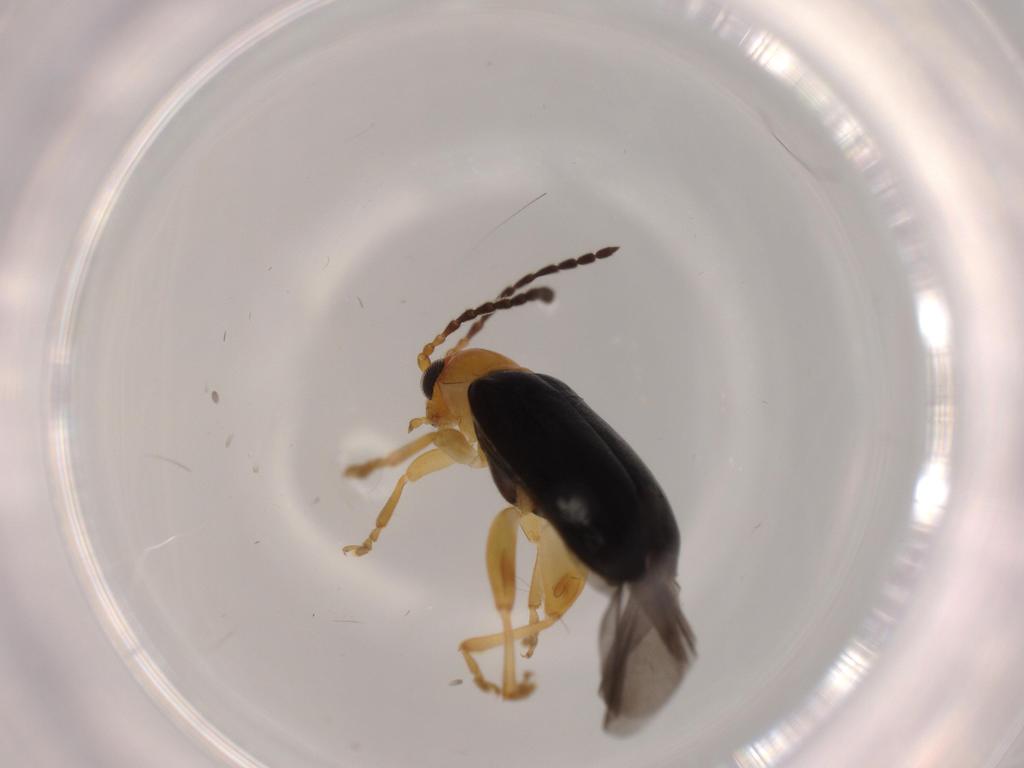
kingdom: Animalia
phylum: Arthropoda
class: Insecta
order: Coleoptera
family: Chrysomelidae
